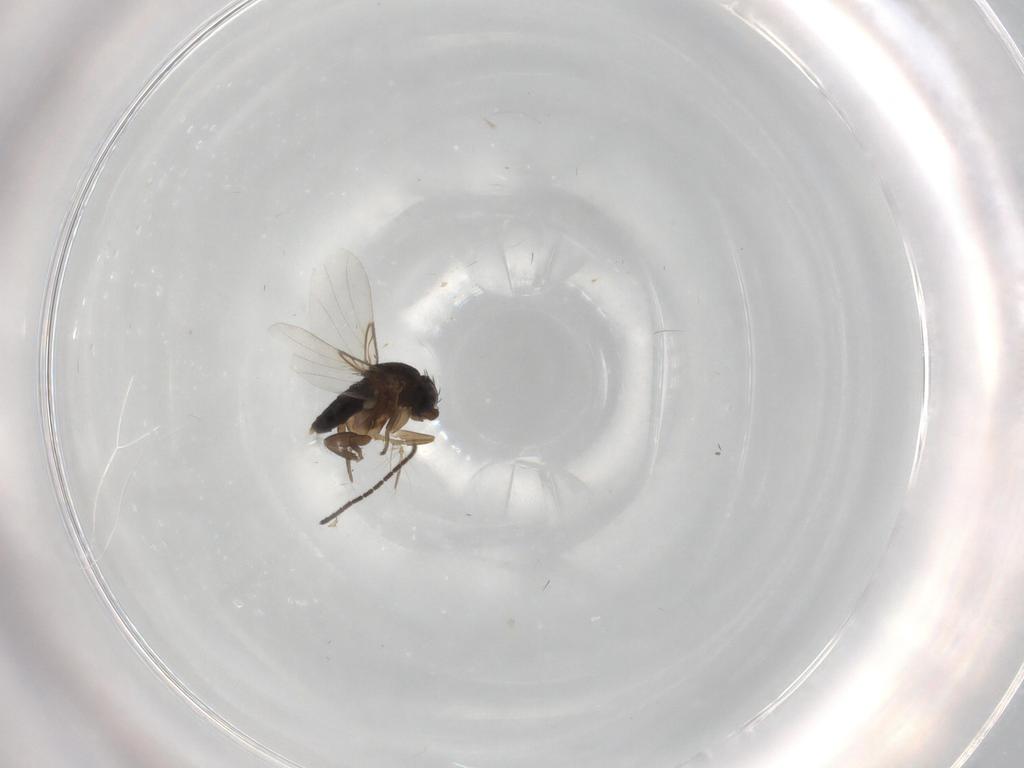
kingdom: Animalia
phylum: Arthropoda
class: Insecta
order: Diptera
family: Phoridae
